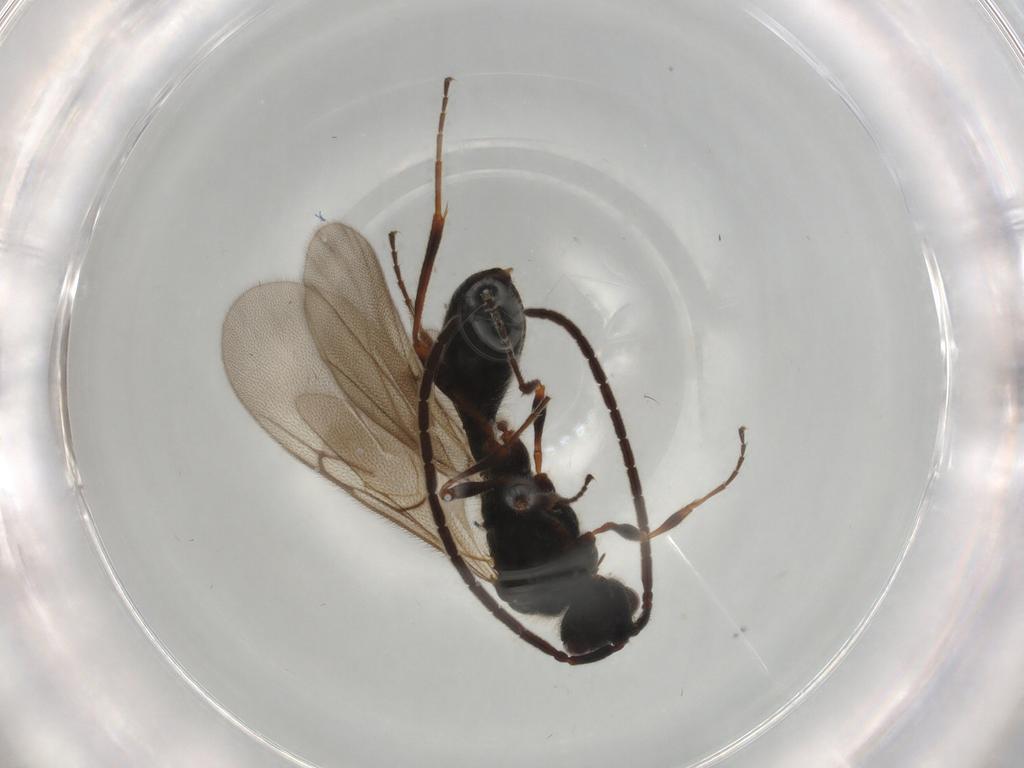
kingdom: Animalia
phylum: Arthropoda
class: Insecta
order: Hymenoptera
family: Ichneumonidae
